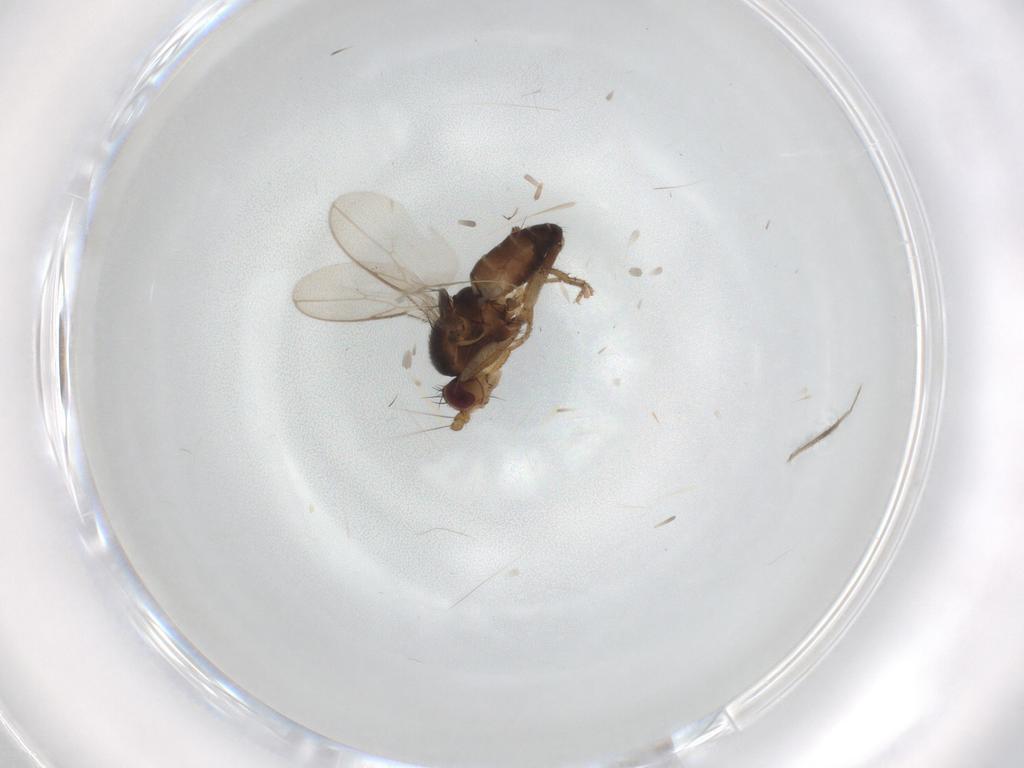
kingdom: Animalia
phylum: Arthropoda
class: Insecta
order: Diptera
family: Sphaeroceridae
